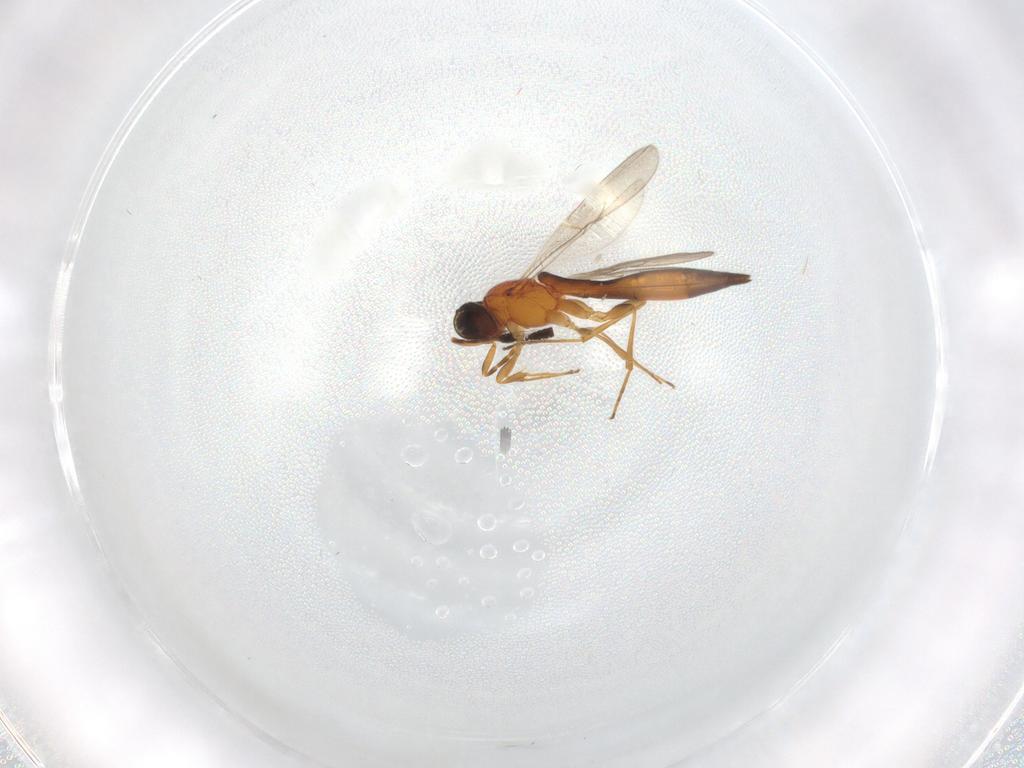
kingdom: Animalia
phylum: Arthropoda
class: Insecta
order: Hymenoptera
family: Scelionidae
